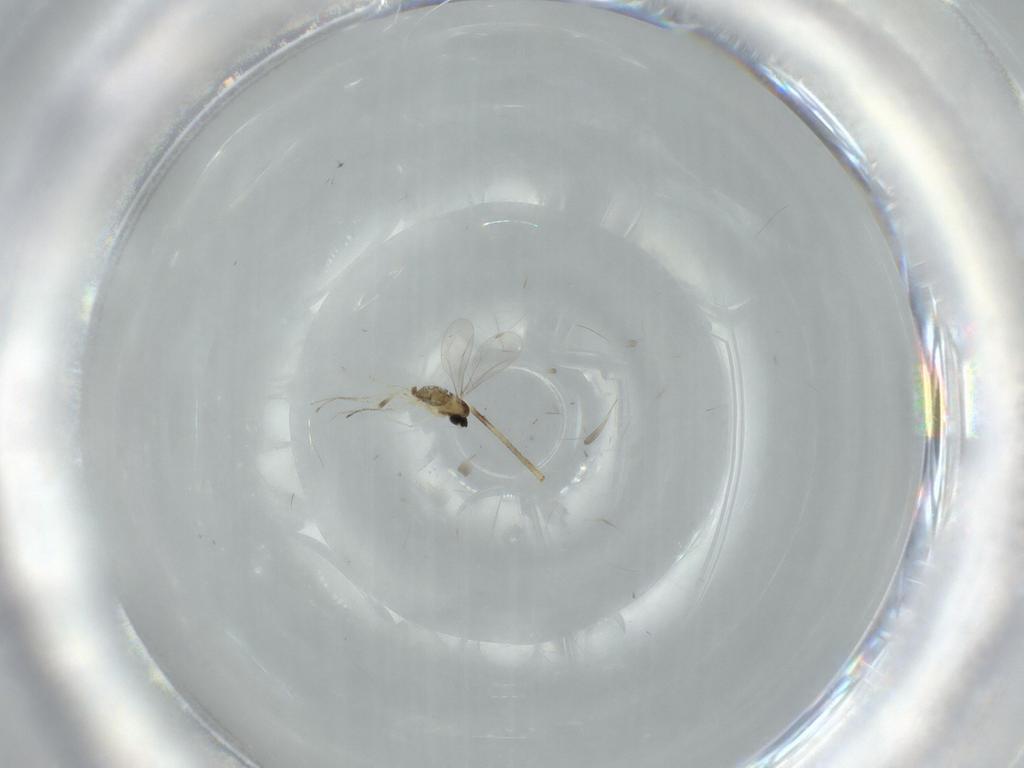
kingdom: Animalia
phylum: Arthropoda
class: Insecta
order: Diptera
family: Cecidomyiidae
